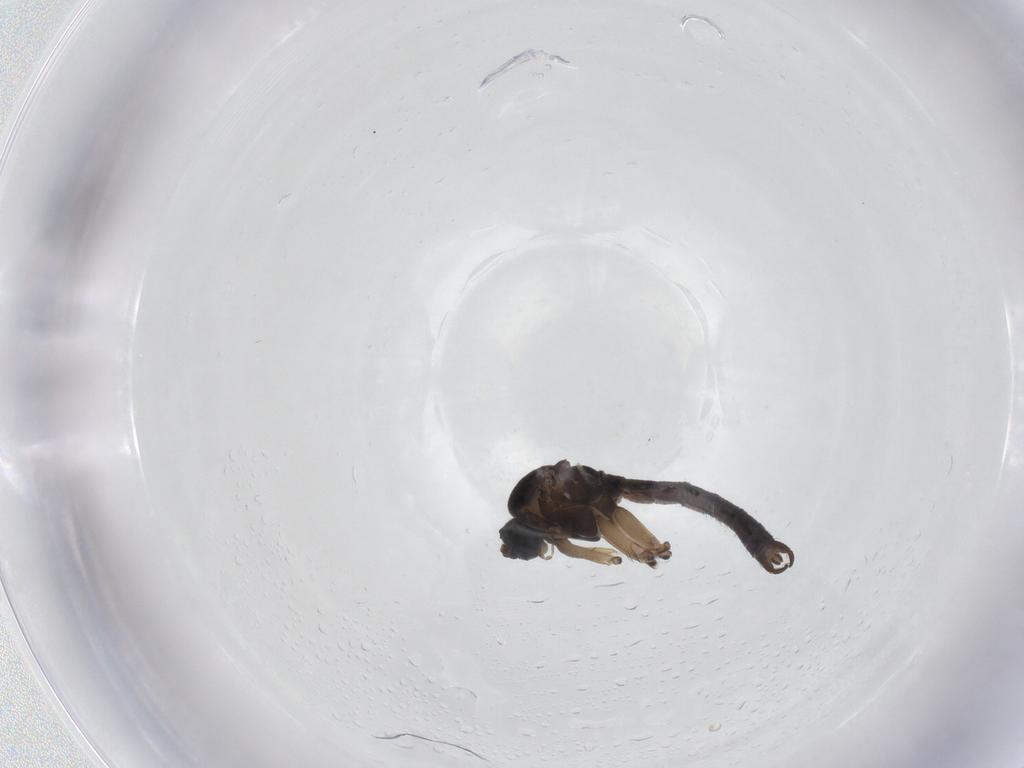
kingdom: Animalia
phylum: Arthropoda
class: Insecta
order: Diptera
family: Sciaridae
